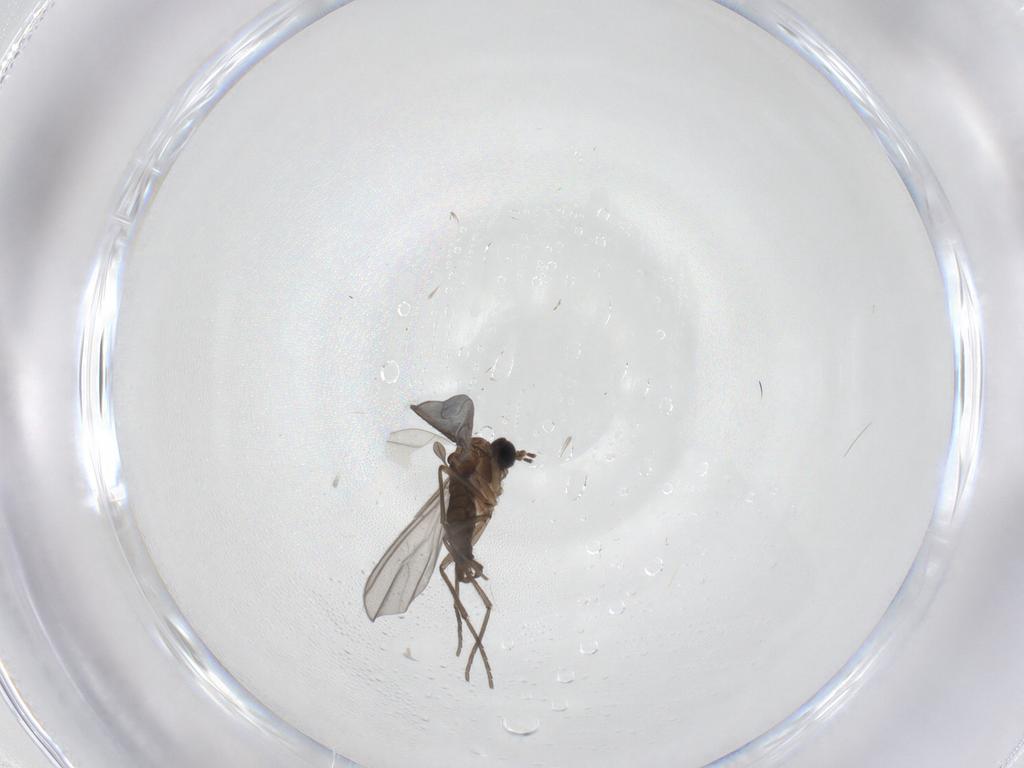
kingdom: Animalia
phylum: Arthropoda
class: Insecta
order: Diptera
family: Sciaridae
